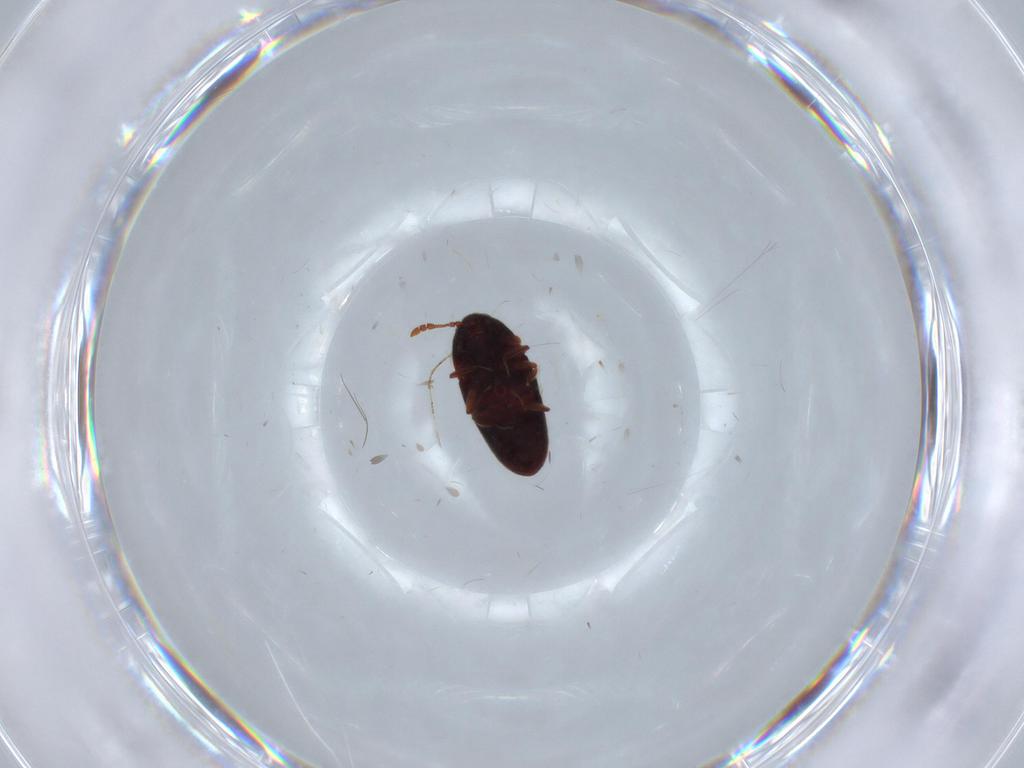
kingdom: Animalia
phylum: Arthropoda
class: Insecta
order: Coleoptera
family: Throscidae
